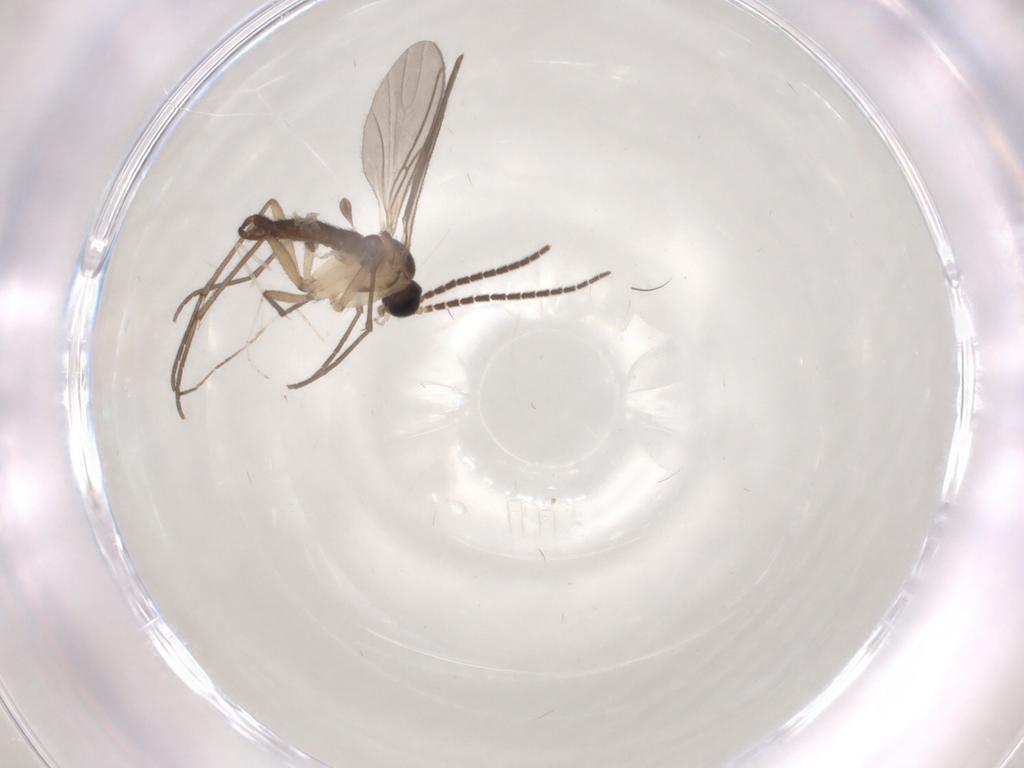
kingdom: Animalia
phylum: Arthropoda
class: Insecta
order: Diptera
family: Sciaridae
